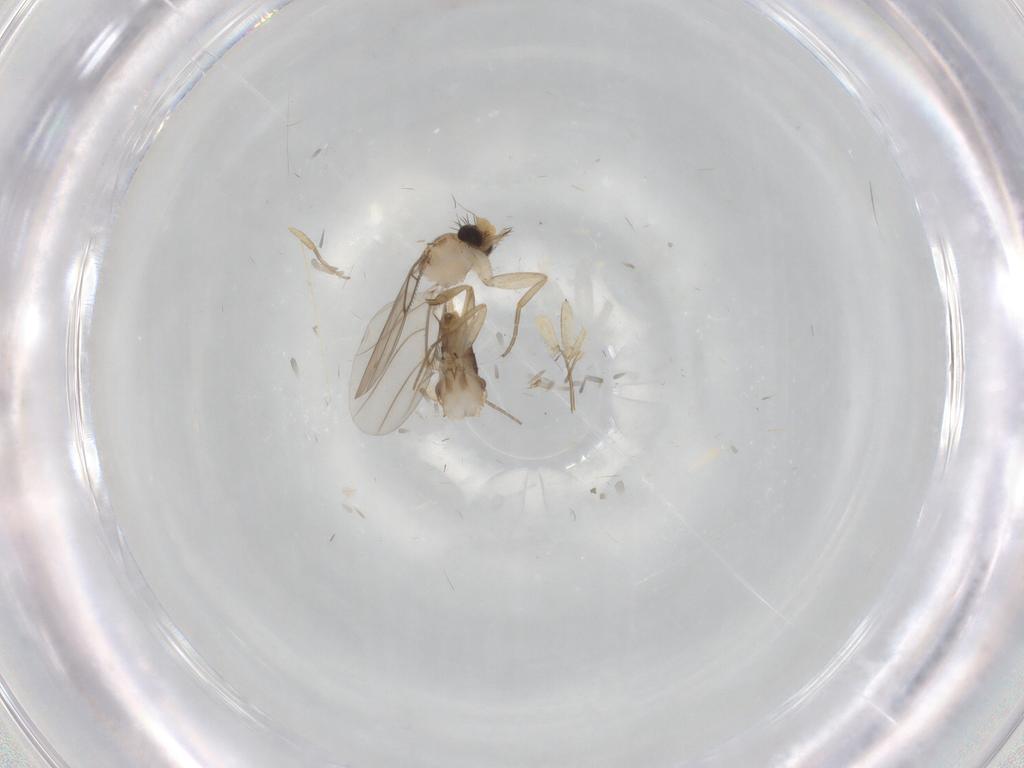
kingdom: Animalia
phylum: Arthropoda
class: Insecta
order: Diptera
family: Phoridae
